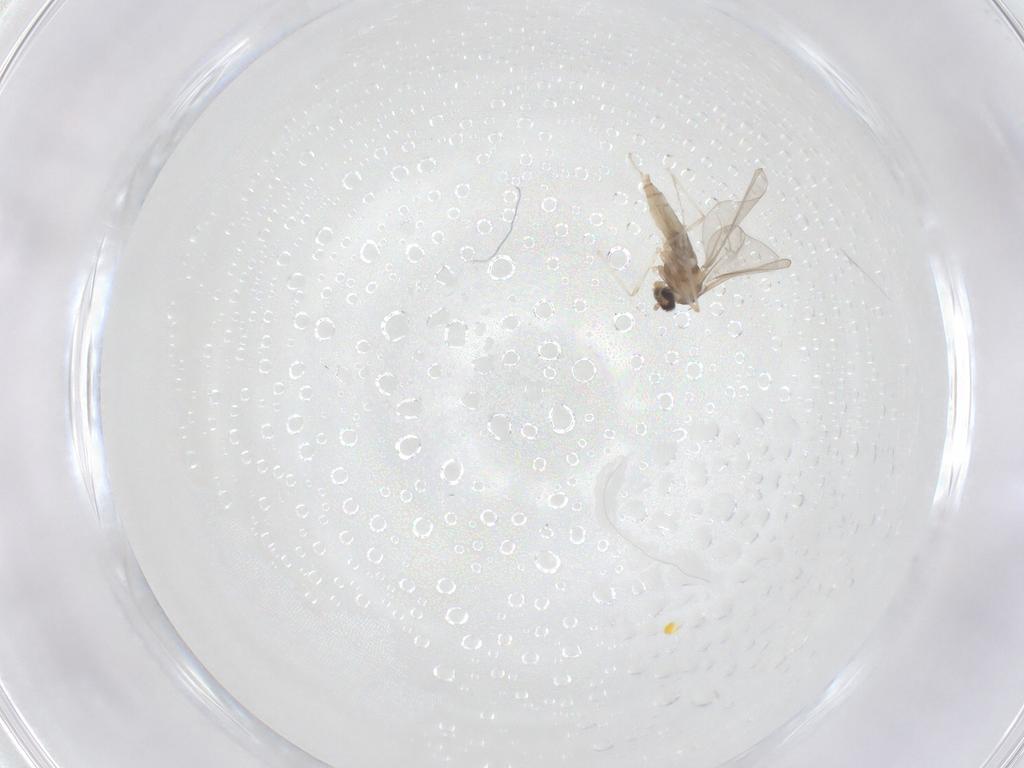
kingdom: Animalia
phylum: Arthropoda
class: Insecta
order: Diptera
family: Cecidomyiidae
